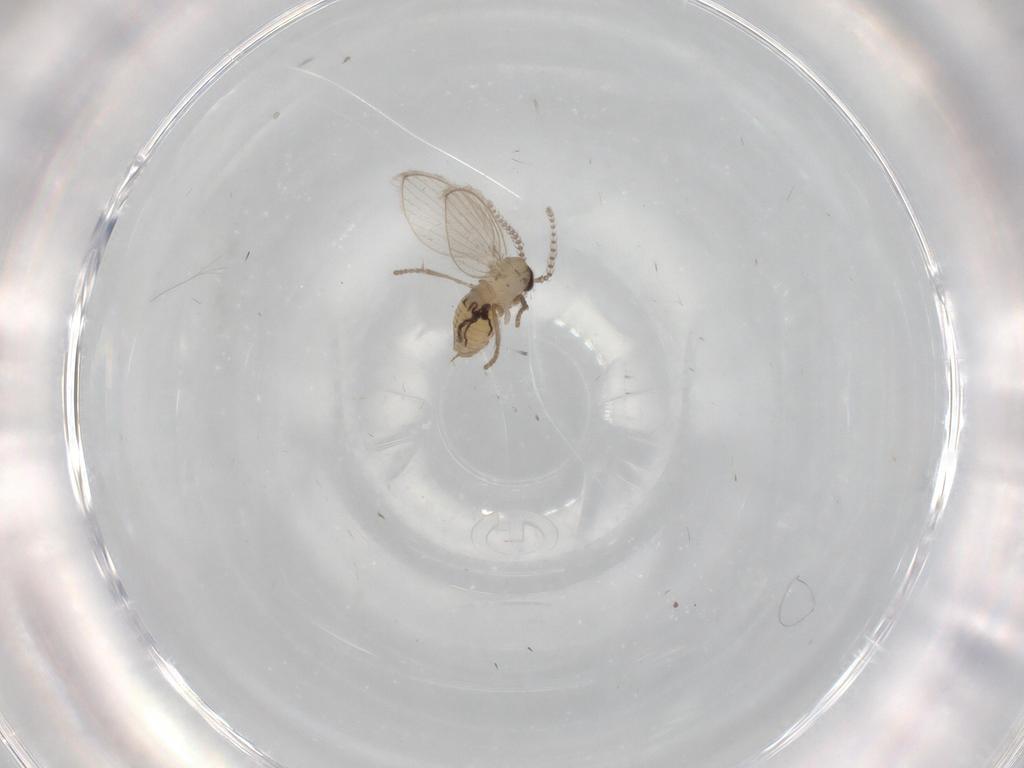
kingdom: Animalia
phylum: Arthropoda
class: Insecta
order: Diptera
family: Psychodidae
